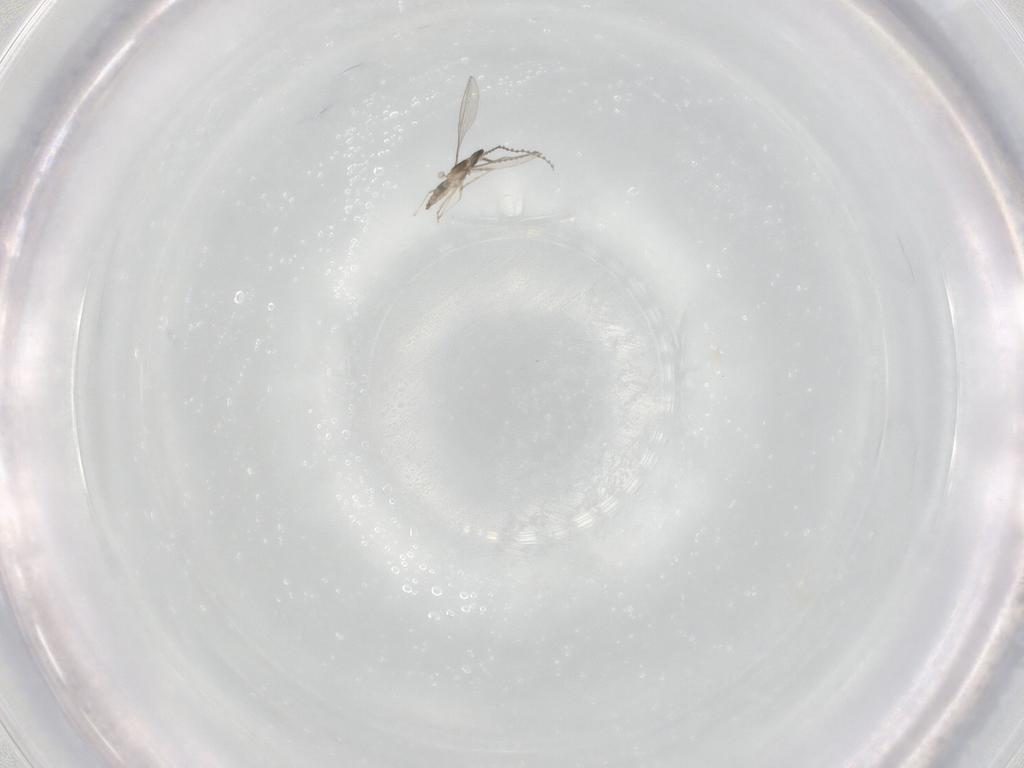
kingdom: Animalia
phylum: Arthropoda
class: Insecta
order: Diptera
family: Cecidomyiidae
